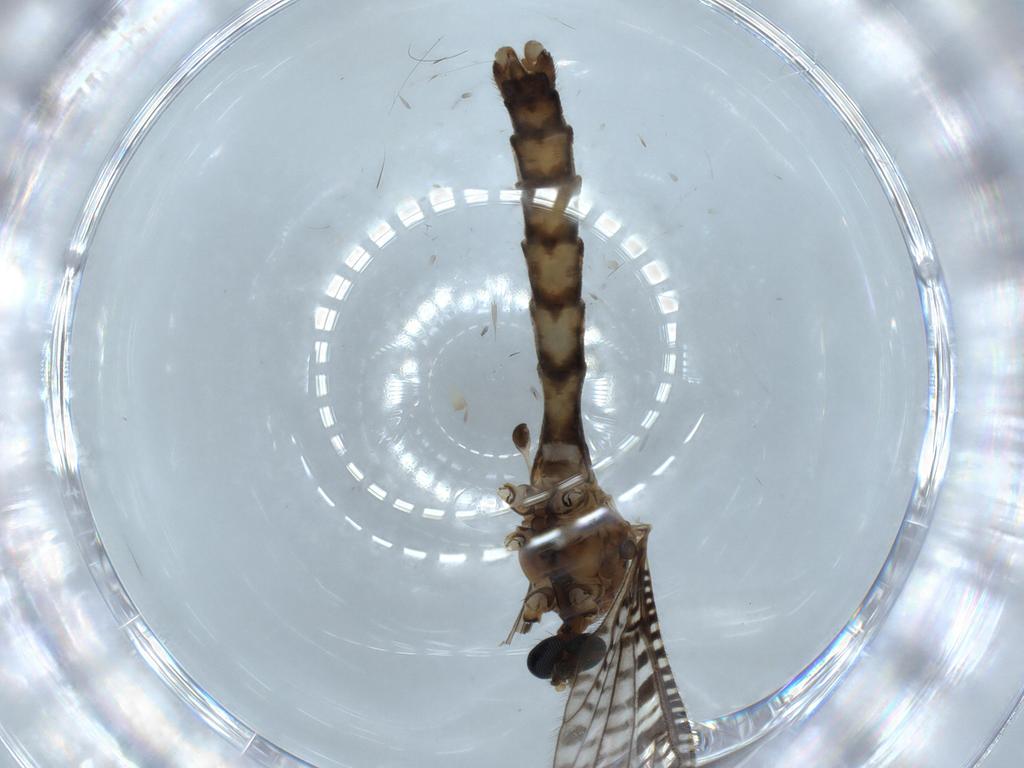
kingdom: Animalia
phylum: Arthropoda
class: Insecta
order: Diptera
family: Limoniidae
